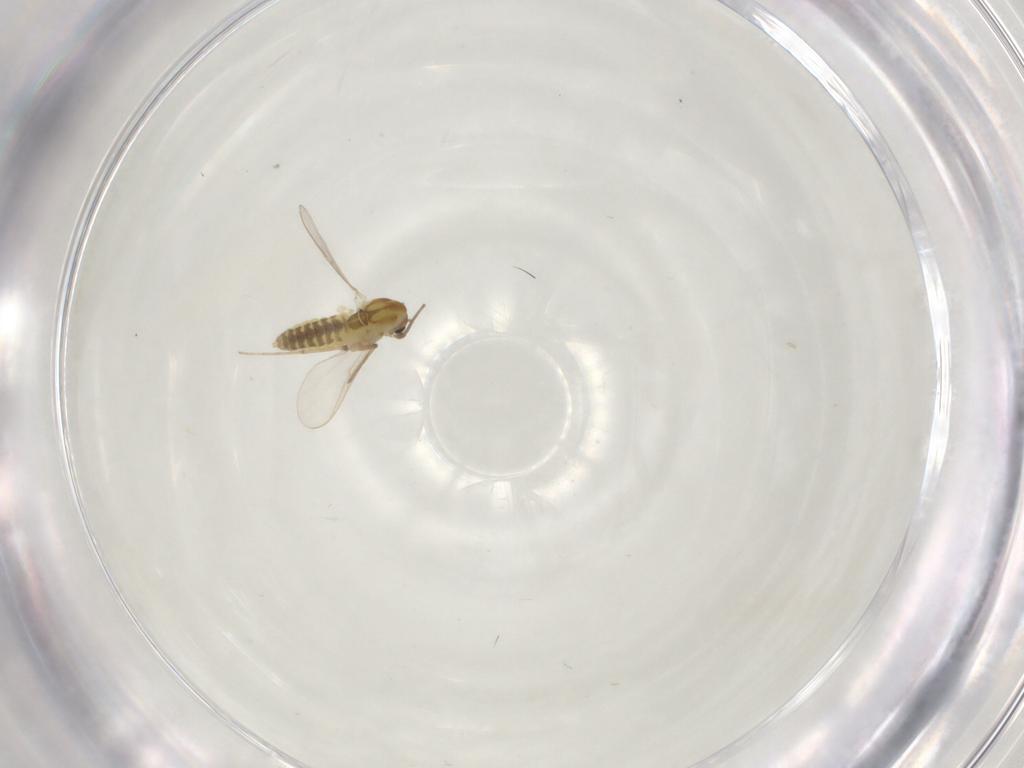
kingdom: Animalia
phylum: Arthropoda
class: Insecta
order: Diptera
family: Chironomidae
